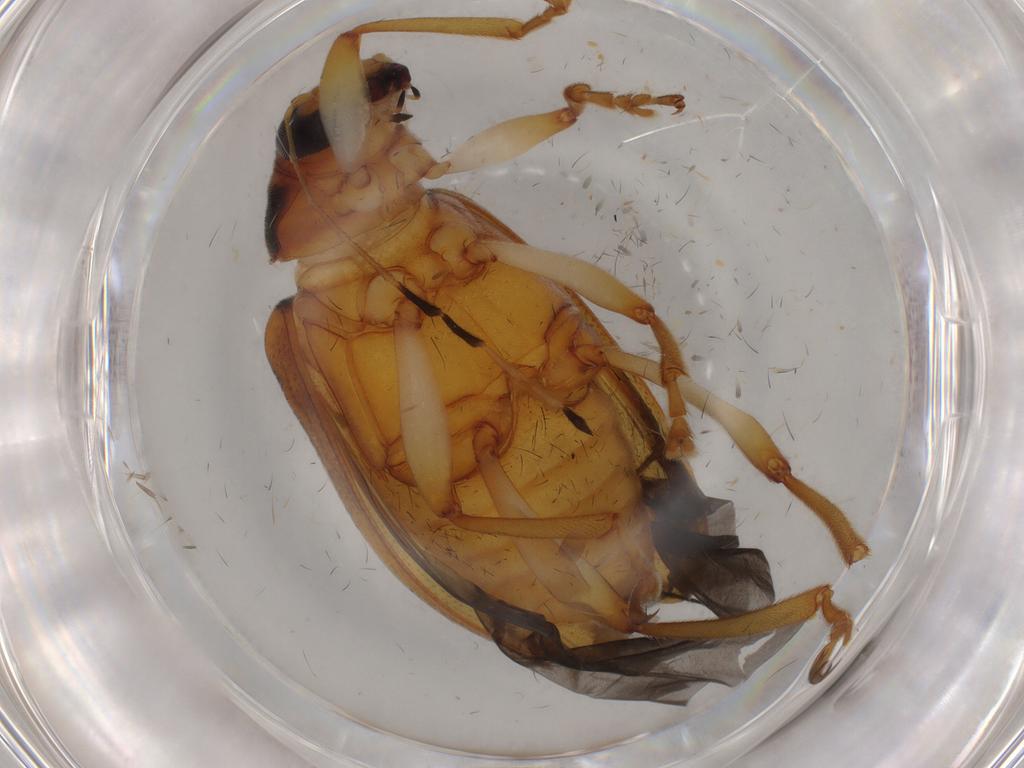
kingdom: Animalia
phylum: Arthropoda
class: Insecta
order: Coleoptera
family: Chrysomelidae
